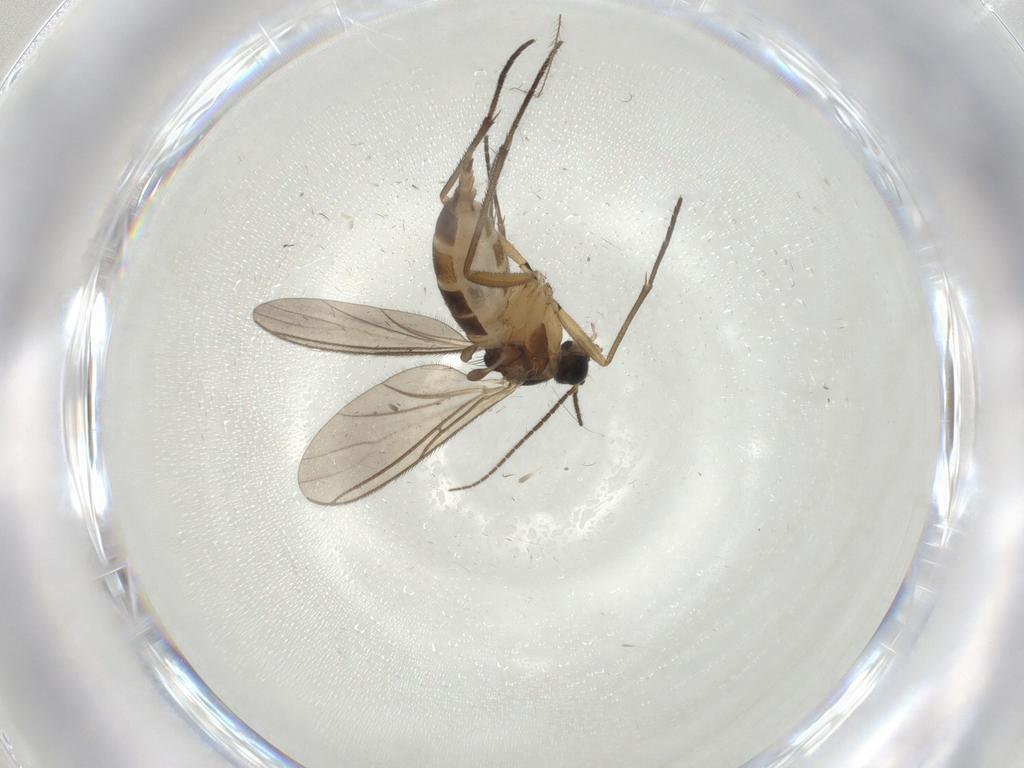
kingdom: Animalia
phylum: Arthropoda
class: Insecta
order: Diptera
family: Sciaridae
